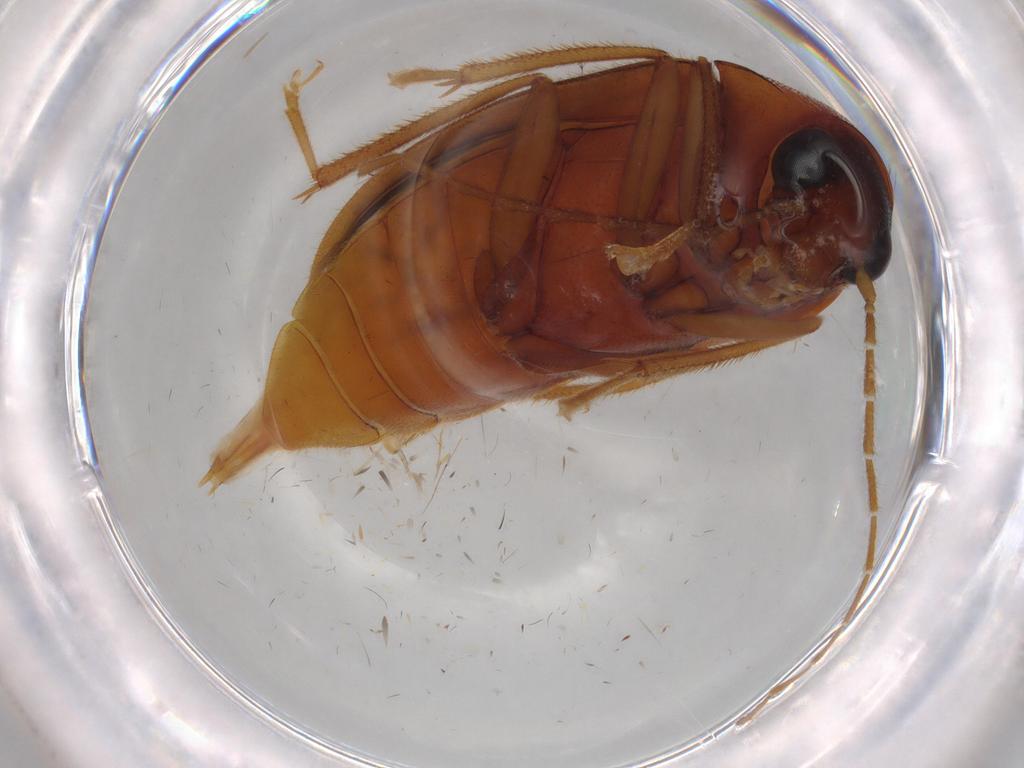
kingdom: Animalia
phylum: Arthropoda
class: Insecta
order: Coleoptera
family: Ptilodactylidae
